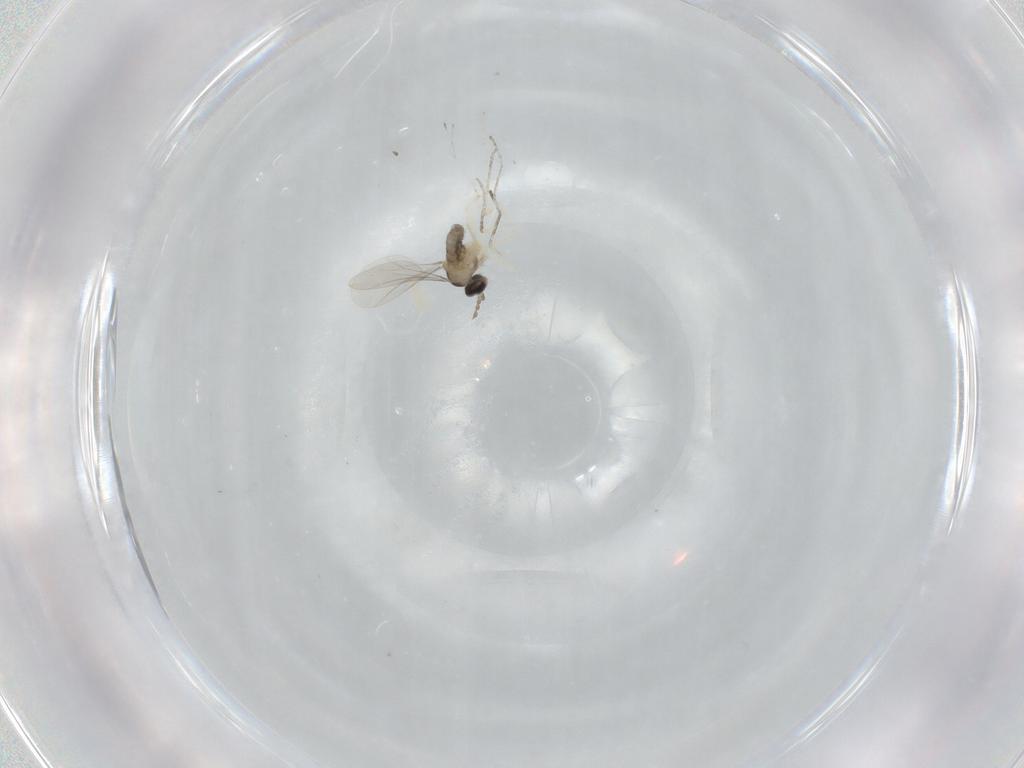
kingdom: Animalia
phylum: Arthropoda
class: Insecta
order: Diptera
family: Cecidomyiidae
